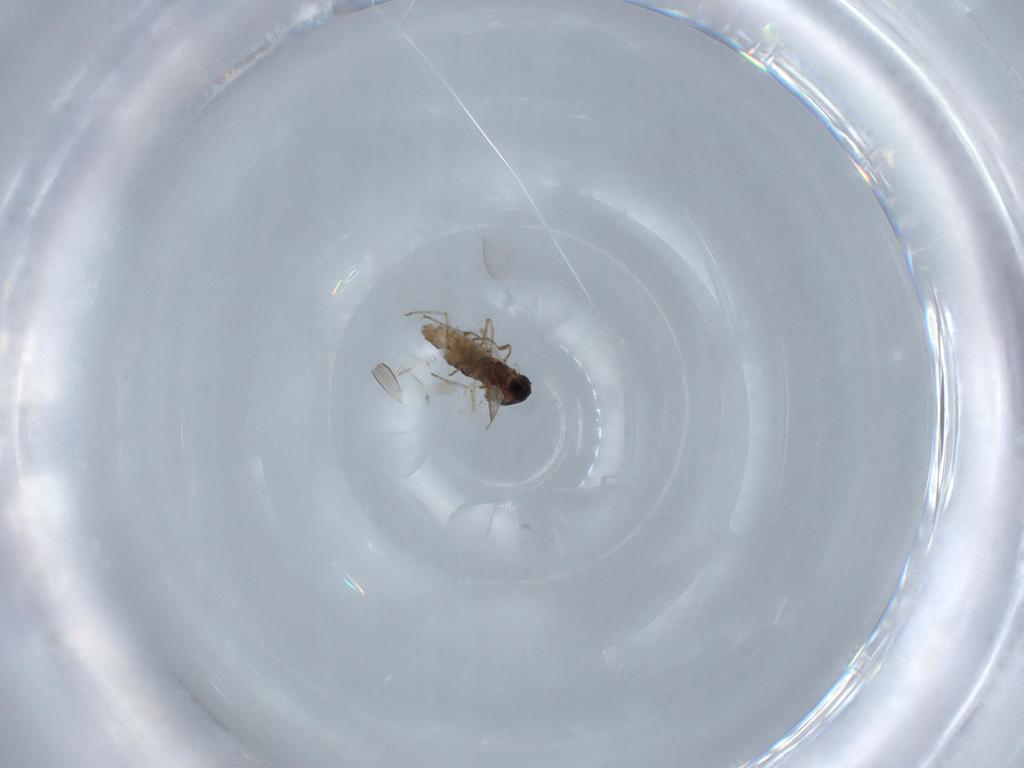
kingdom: Animalia
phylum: Arthropoda
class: Insecta
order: Diptera
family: Ceratopogonidae
